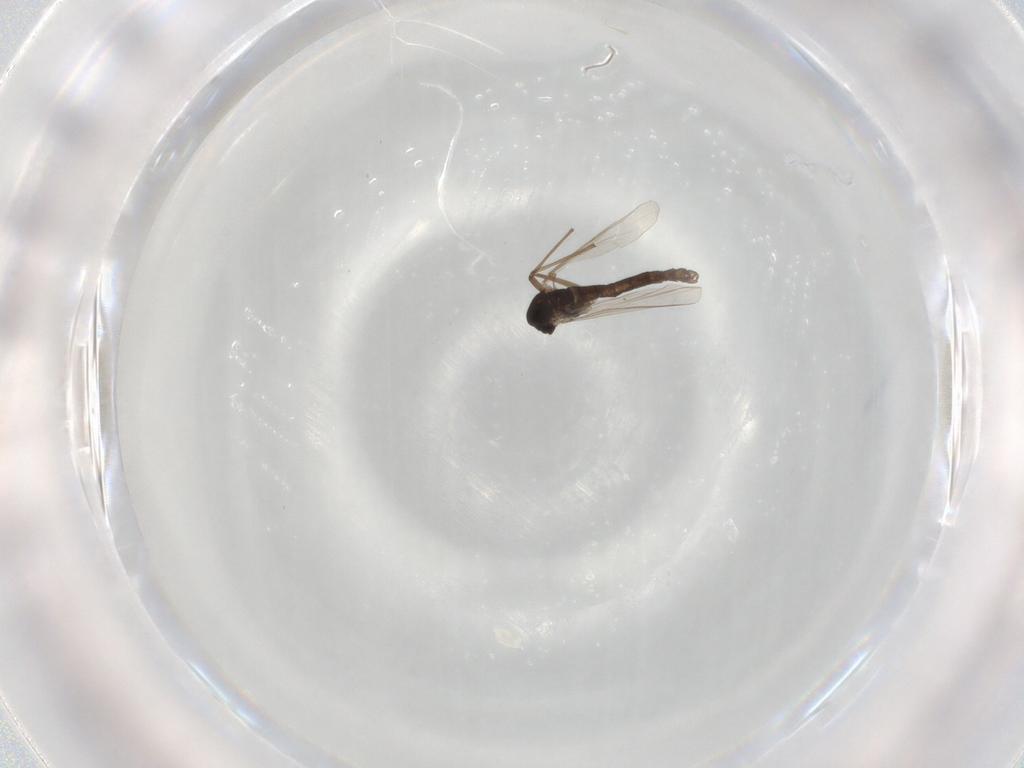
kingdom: Animalia
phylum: Arthropoda
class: Insecta
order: Diptera
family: Chironomidae
